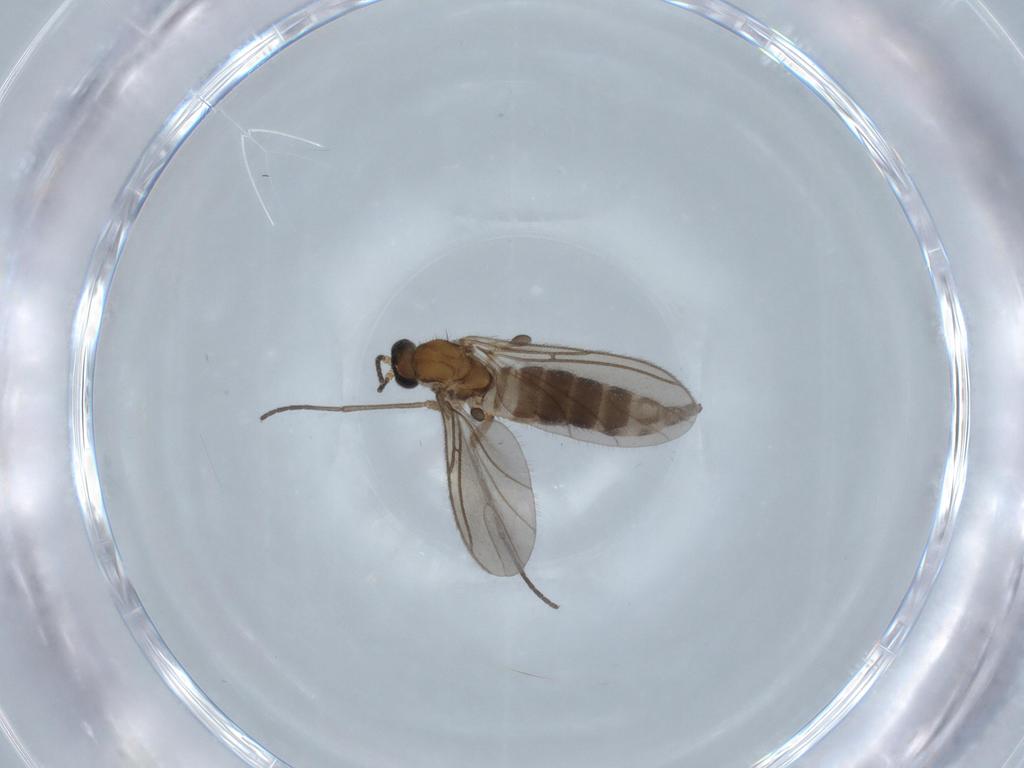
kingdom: Animalia
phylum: Arthropoda
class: Insecta
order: Diptera
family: Sciaridae
